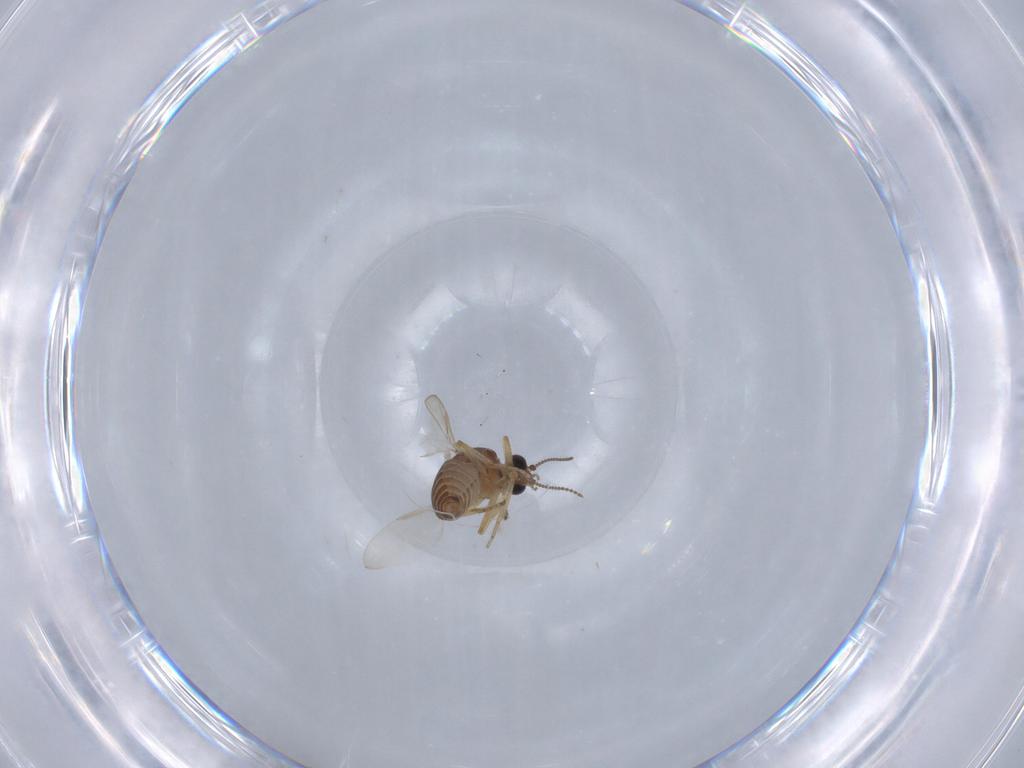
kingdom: Animalia
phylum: Arthropoda
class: Insecta
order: Diptera
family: Ceratopogonidae
